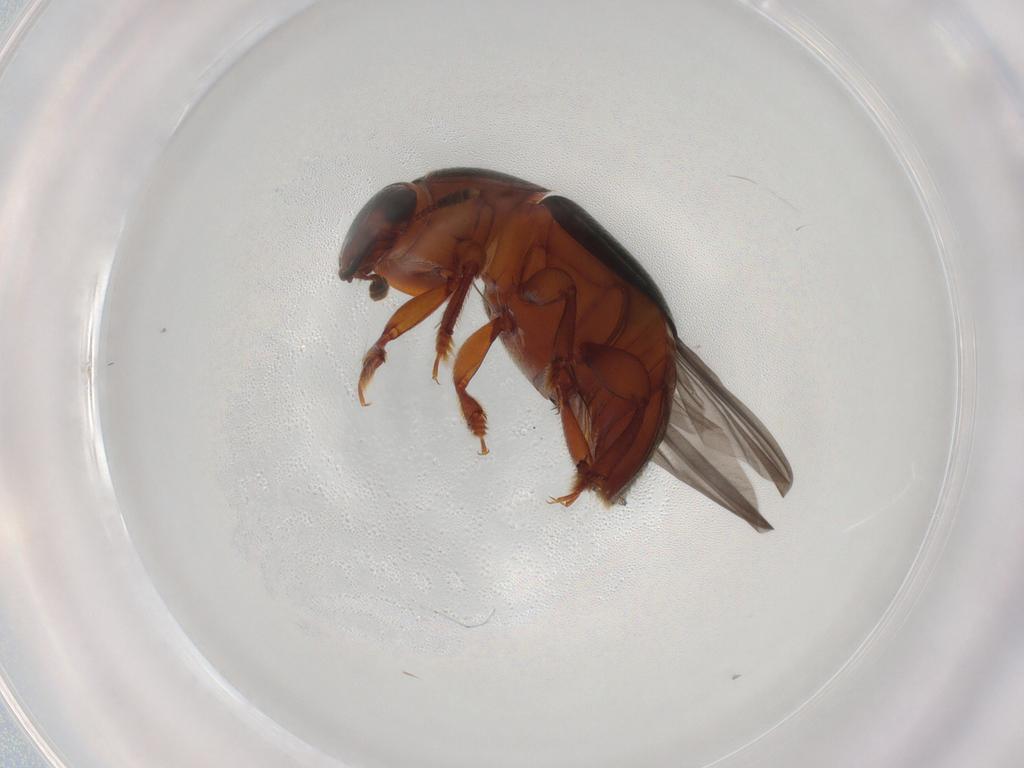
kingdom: Animalia
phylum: Arthropoda
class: Insecta
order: Coleoptera
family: Nitidulidae
